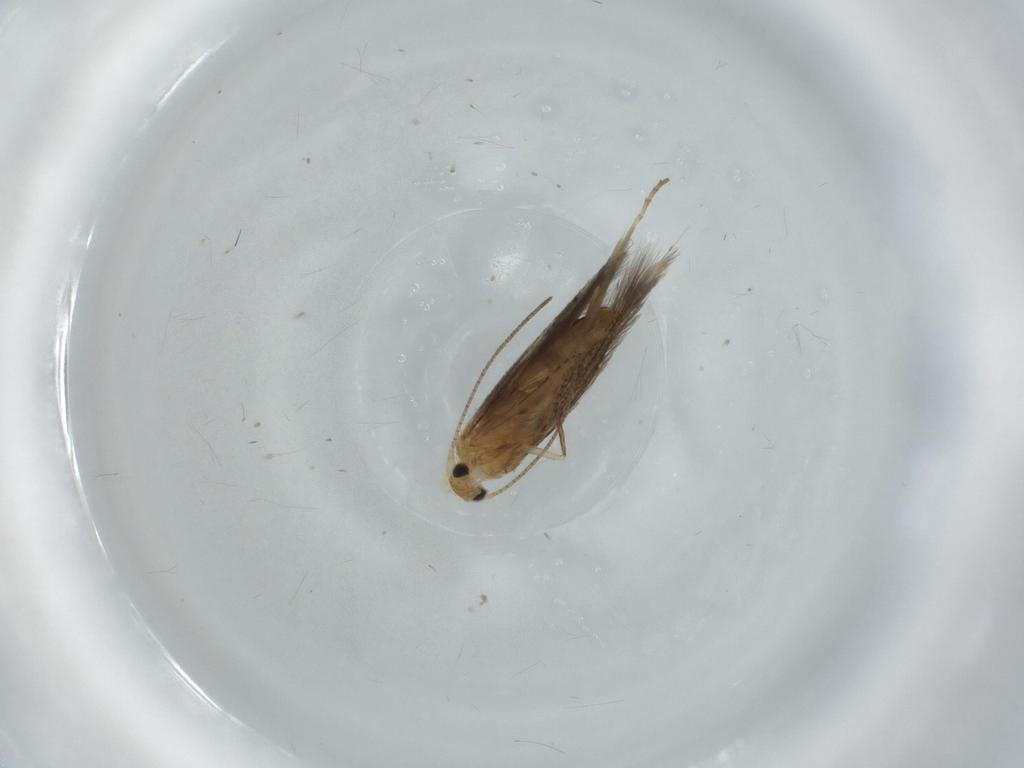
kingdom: Animalia
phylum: Arthropoda
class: Insecta
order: Lepidoptera
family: Bucculatricidae
